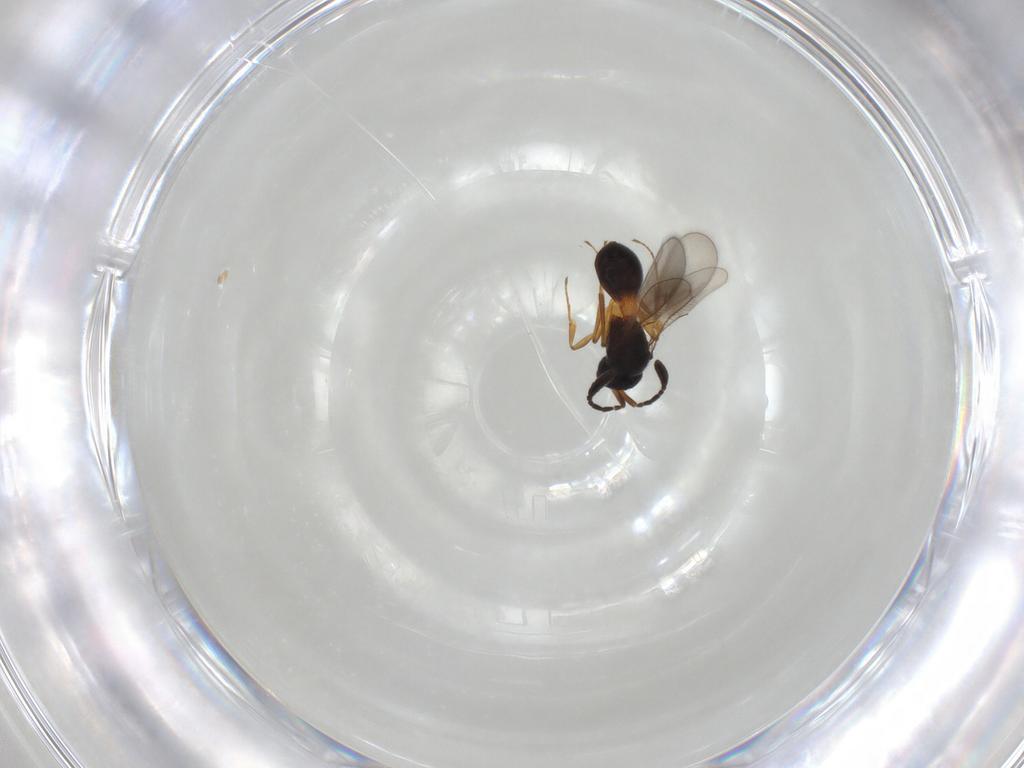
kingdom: Animalia
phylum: Arthropoda
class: Insecta
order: Hymenoptera
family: Scelionidae
